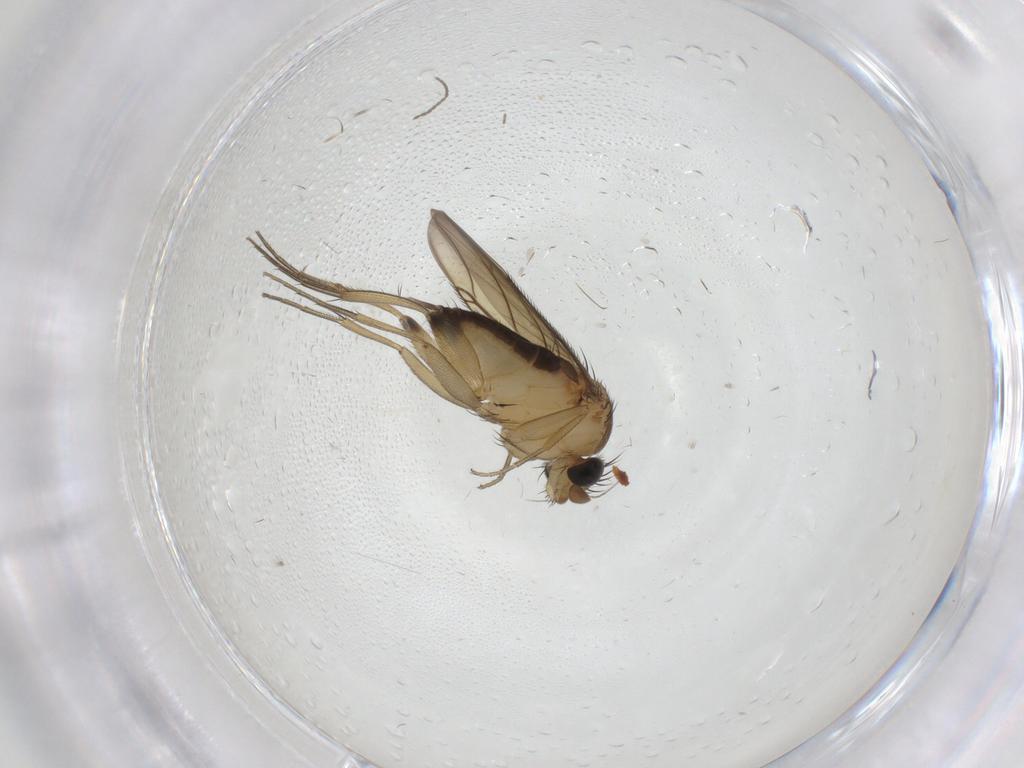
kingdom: Animalia
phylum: Arthropoda
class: Insecta
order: Diptera
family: Phoridae
